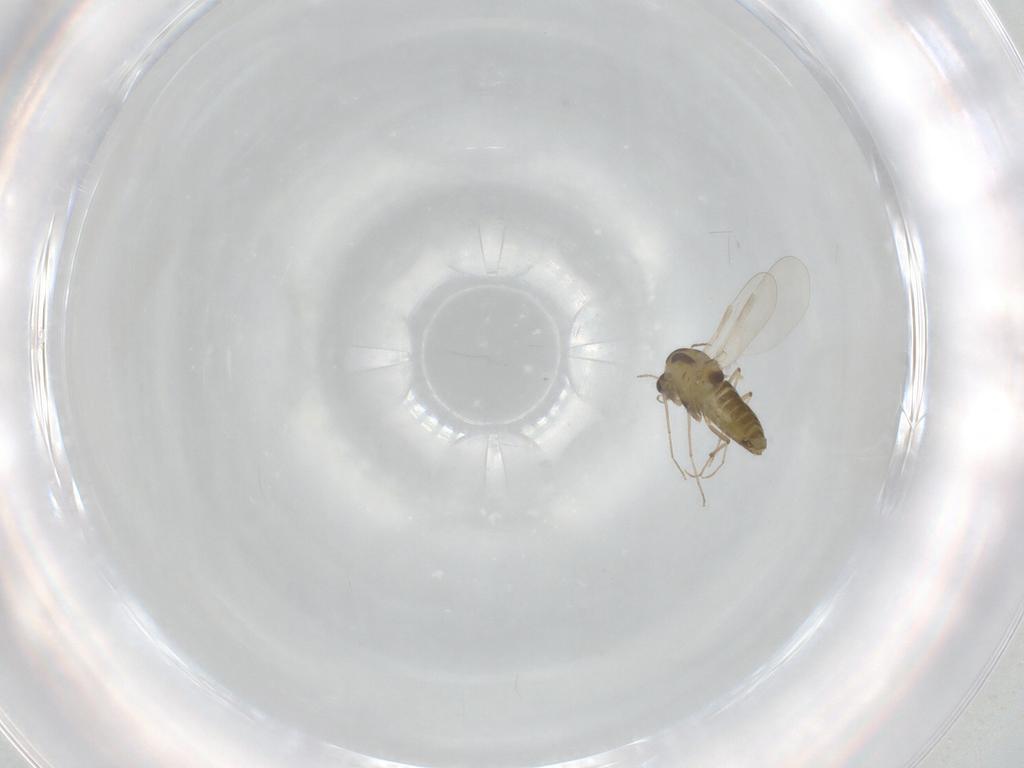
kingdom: Animalia
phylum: Arthropoda
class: Insecta
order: Diptera
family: Chironomidae
